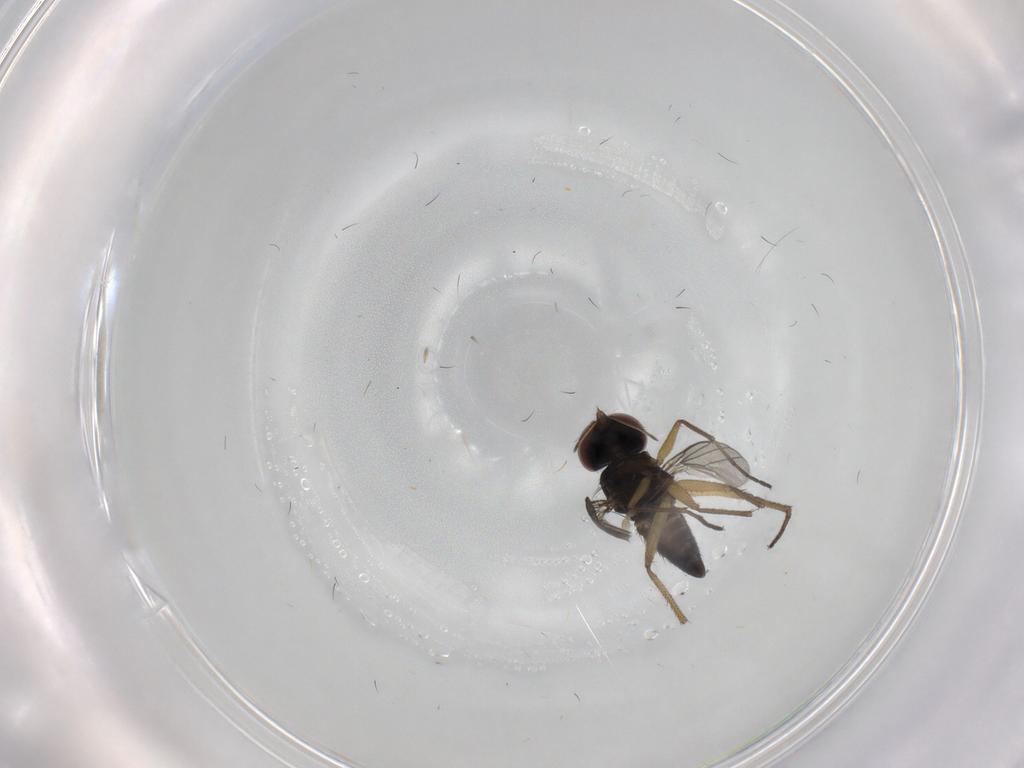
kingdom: Animalia
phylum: Arthropoda
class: Insecta
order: Diptera
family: Dolichopodidae
